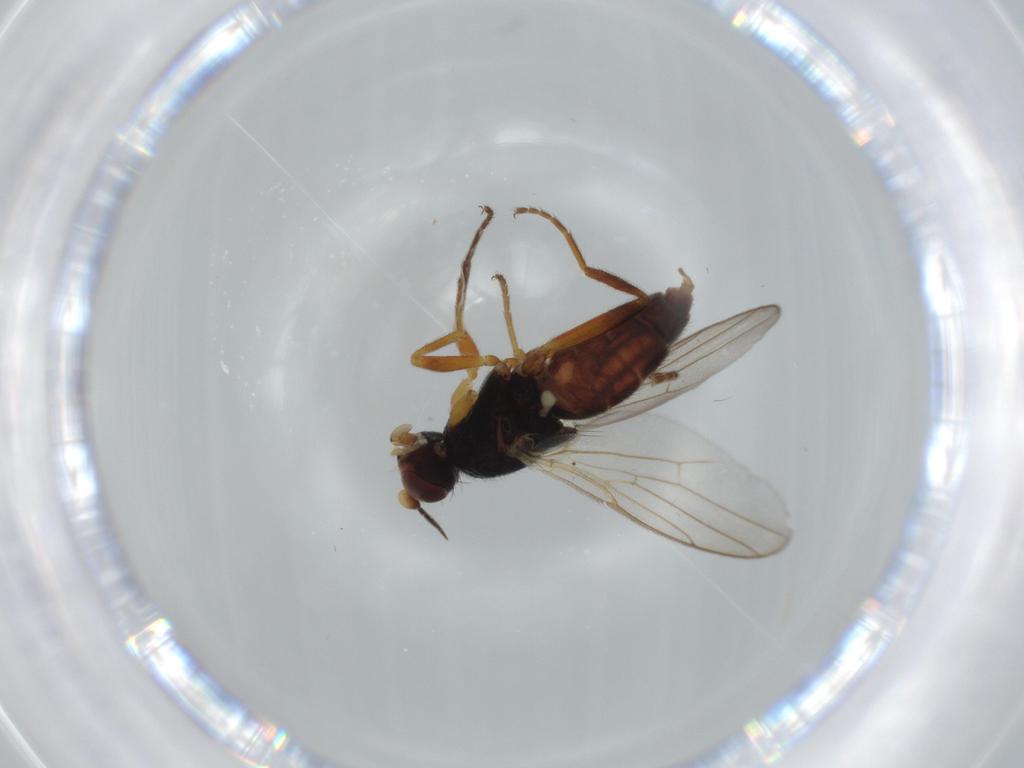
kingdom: Animalia
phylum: Arthropoda
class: Insecta
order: Diptera
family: Chloropidae
